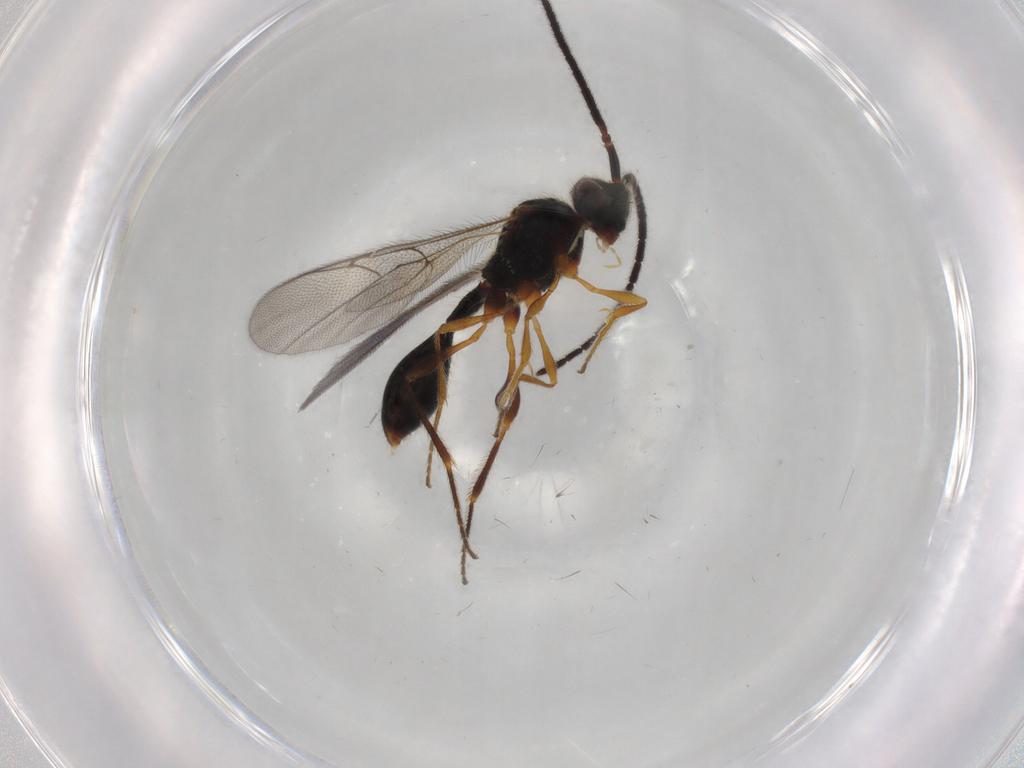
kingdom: Animalia
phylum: Arthropoda
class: Insecta
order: Hymenoptera
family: Diapriidae
